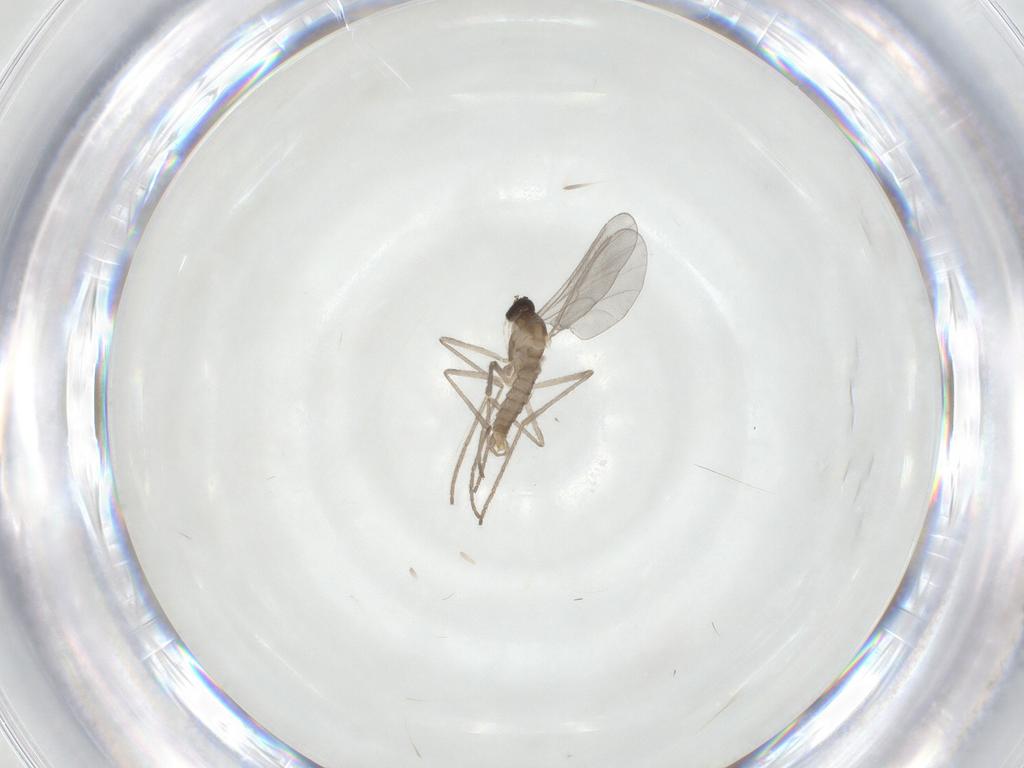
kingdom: Animalia
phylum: Arthropoda
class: Insecta
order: Diptera
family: Cecidomyiidae
